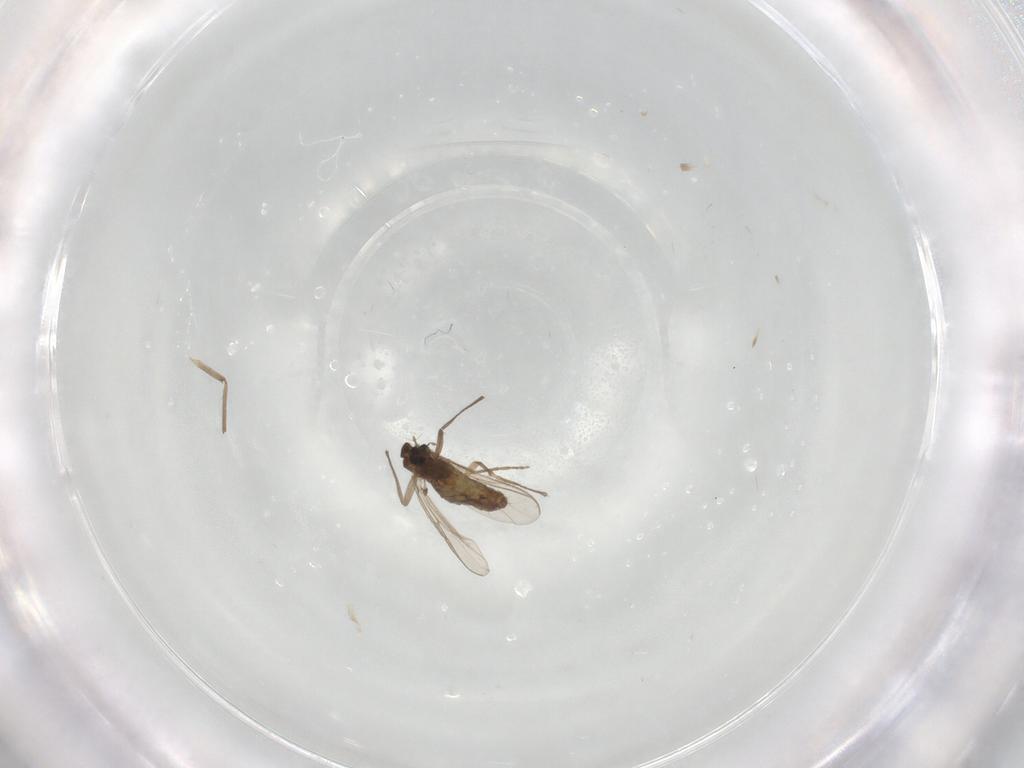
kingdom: Animalia
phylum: Arthropoda
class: Insecta
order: Diptera
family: Chironomidae
